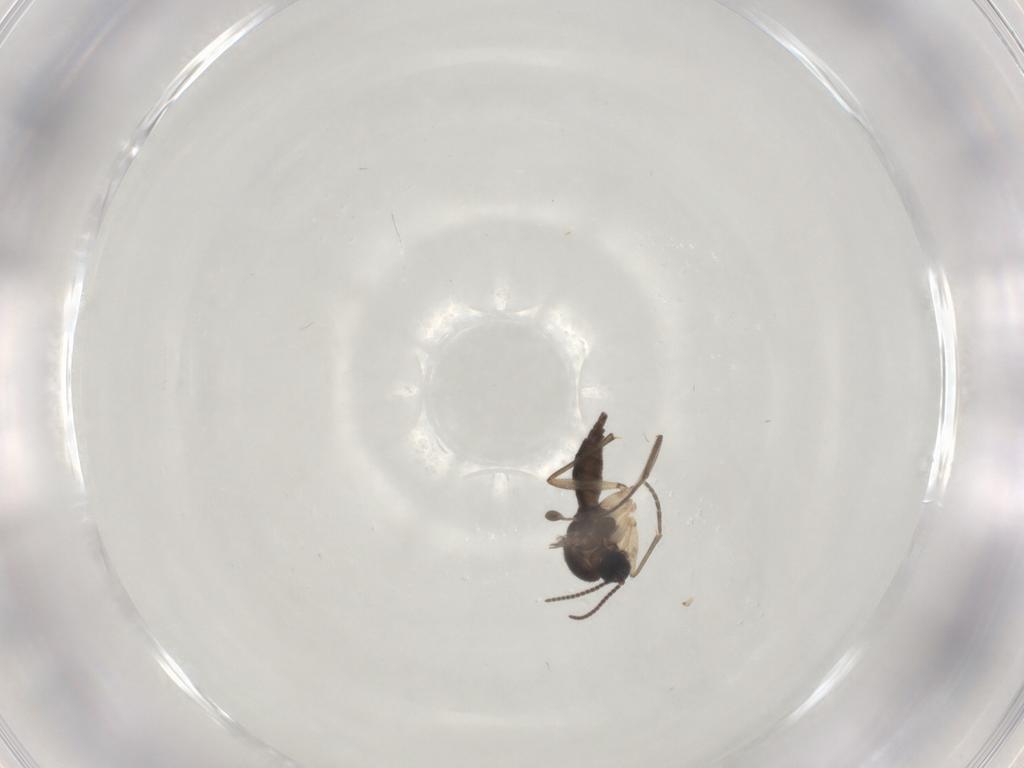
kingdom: Animalia
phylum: Arthropoda
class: Insecta
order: Diptera
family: Sciaridae
